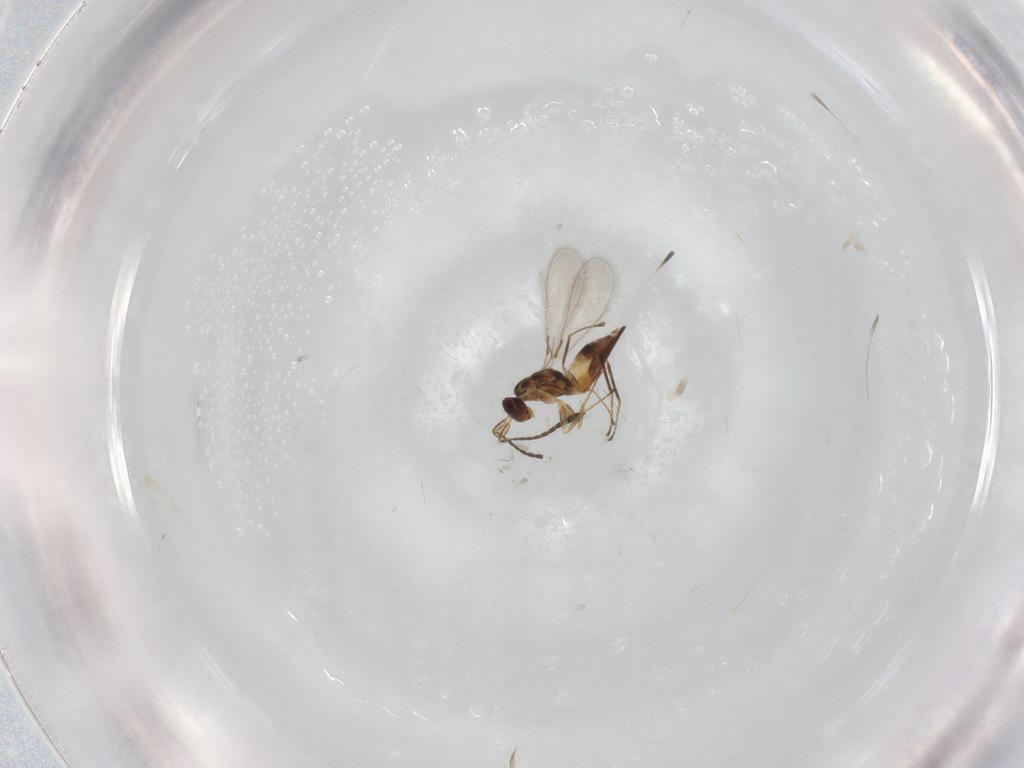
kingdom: Animalia
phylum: Arthropoda
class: Insecta
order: Hymenoptera
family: Mymaridae
